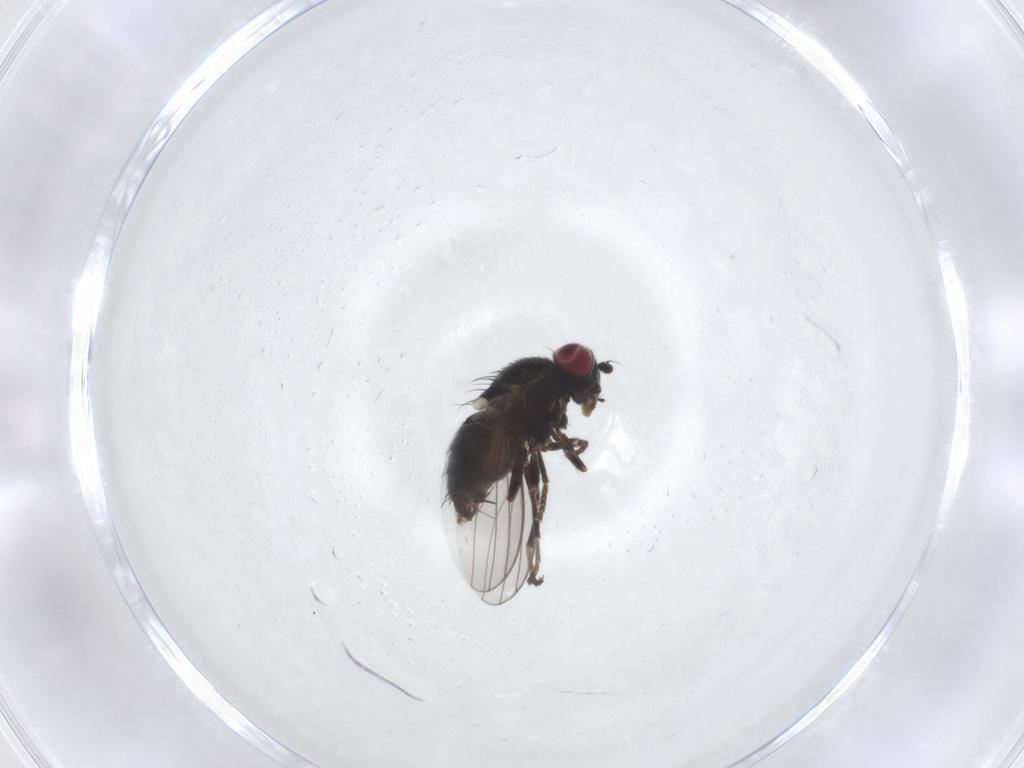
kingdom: Animalia
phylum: Arthropoda
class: Insecta
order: Diptera
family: Chamaemyiidae
